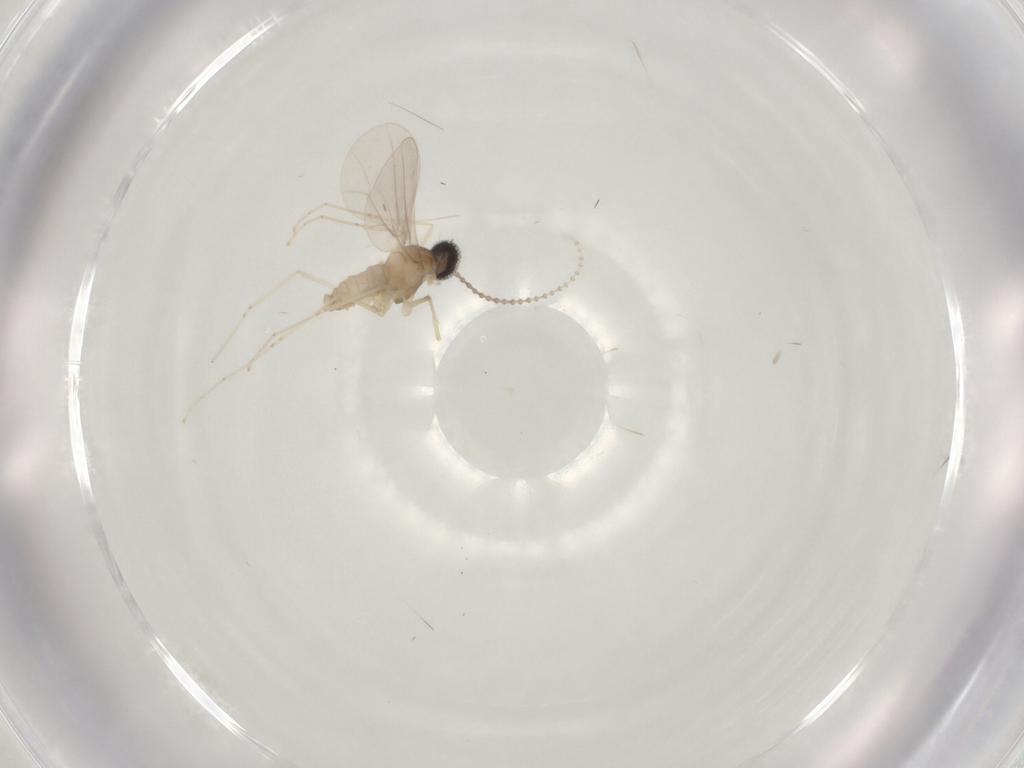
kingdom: Animalia
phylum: Arthropoda
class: Insecta
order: Diptera
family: Cecidomyiidae
